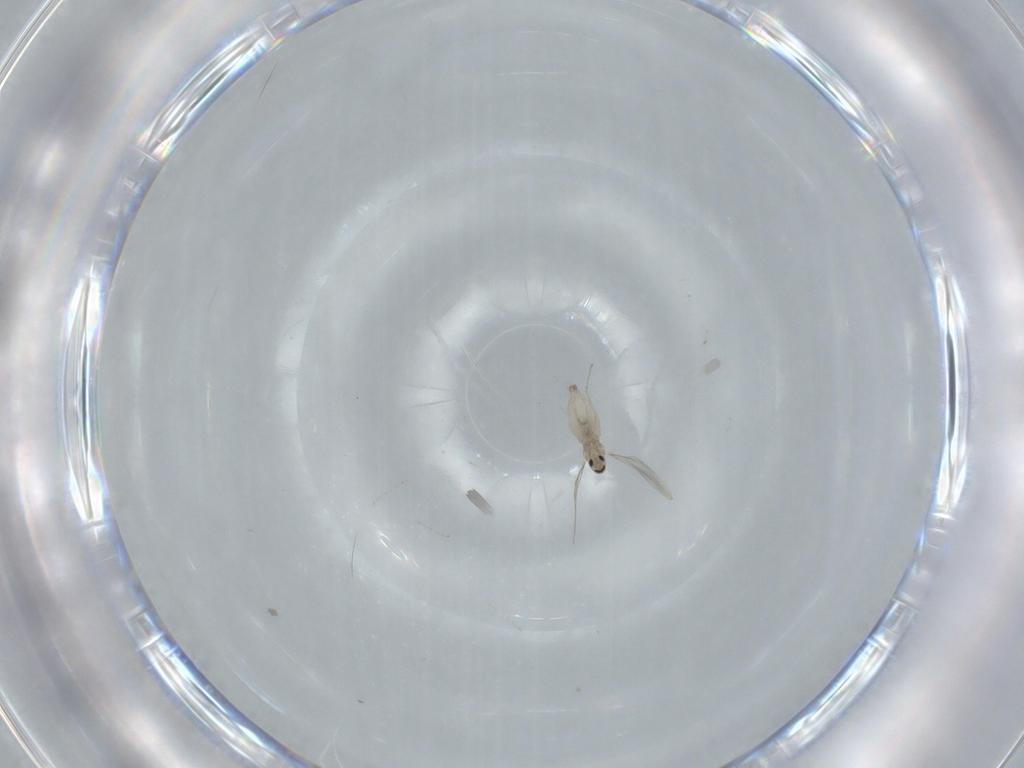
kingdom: Animalia
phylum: Arthropoda
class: Insecta
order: Diptera
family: Cecidomyiidae
